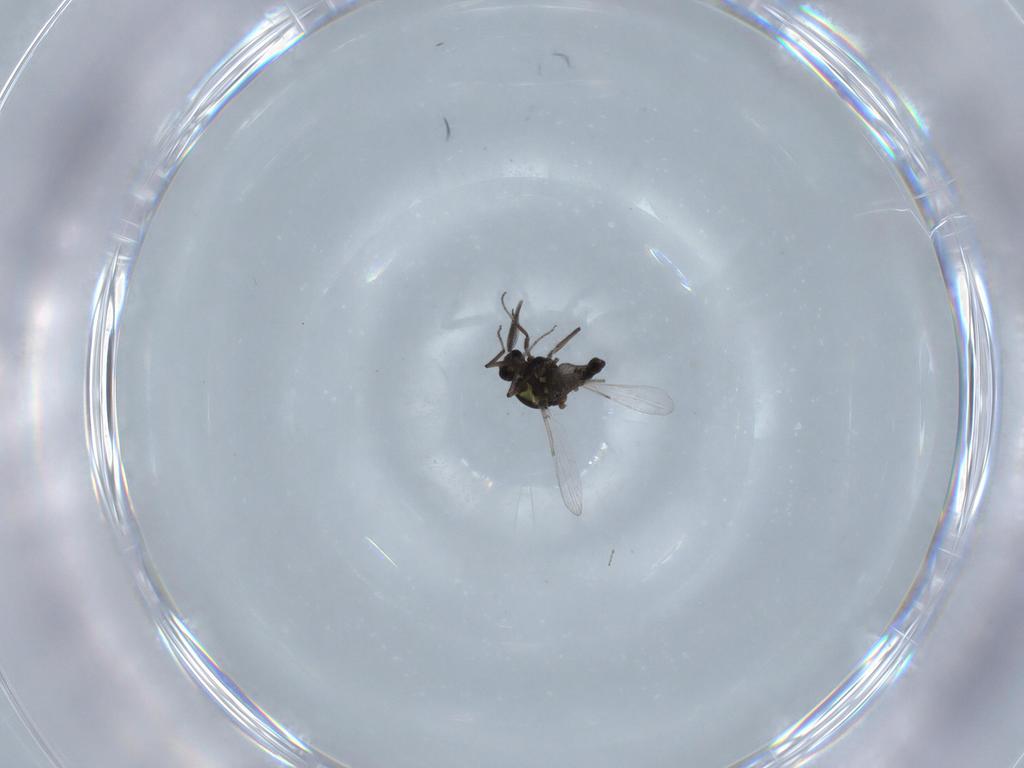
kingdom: Animalia
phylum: Arthropoda
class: Insecta
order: Diptera
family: Ceratopogonidae
